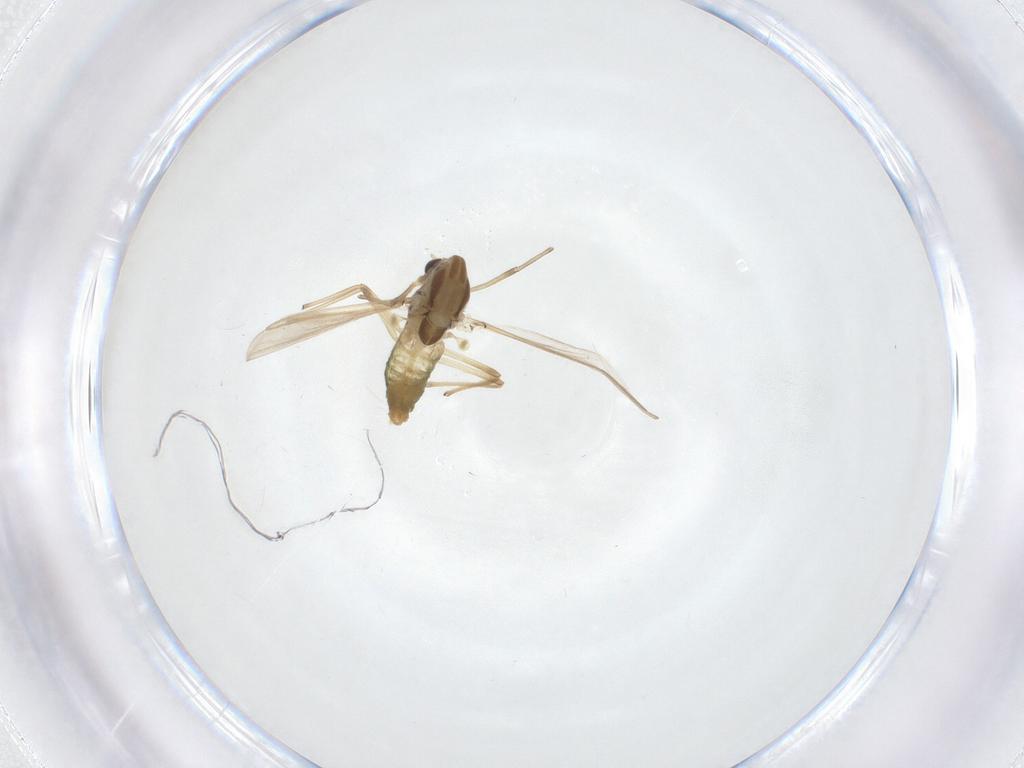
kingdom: Animalia
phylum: Arthropoda
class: Insecta
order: Diptera
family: Chironomidae
